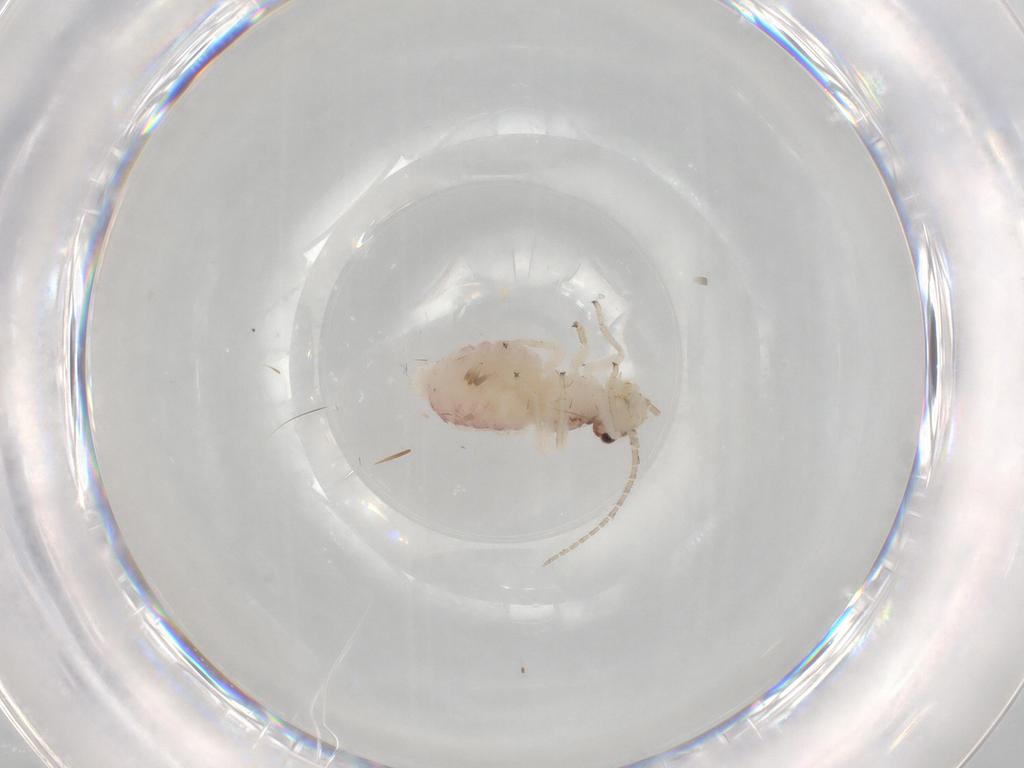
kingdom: Animalia
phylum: Arthropoda
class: Insecta
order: Psocodea
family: Lepidopsocidae
